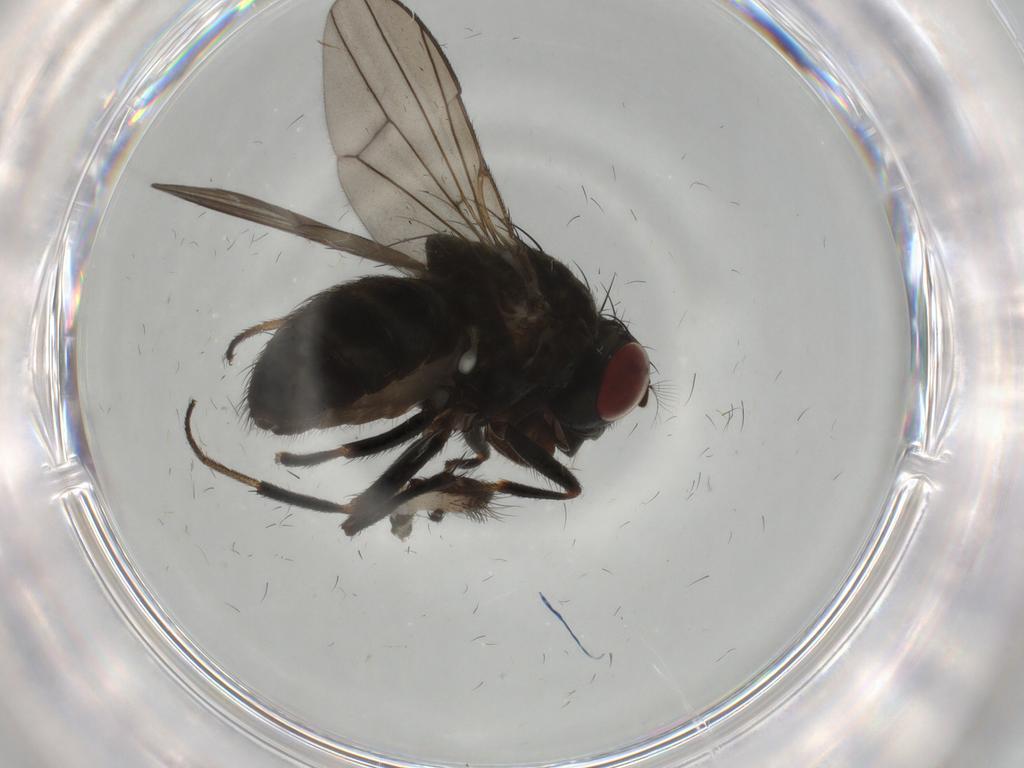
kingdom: Animalia
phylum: Arthropoda
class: Insecta
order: Diptera
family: Ephydridae
